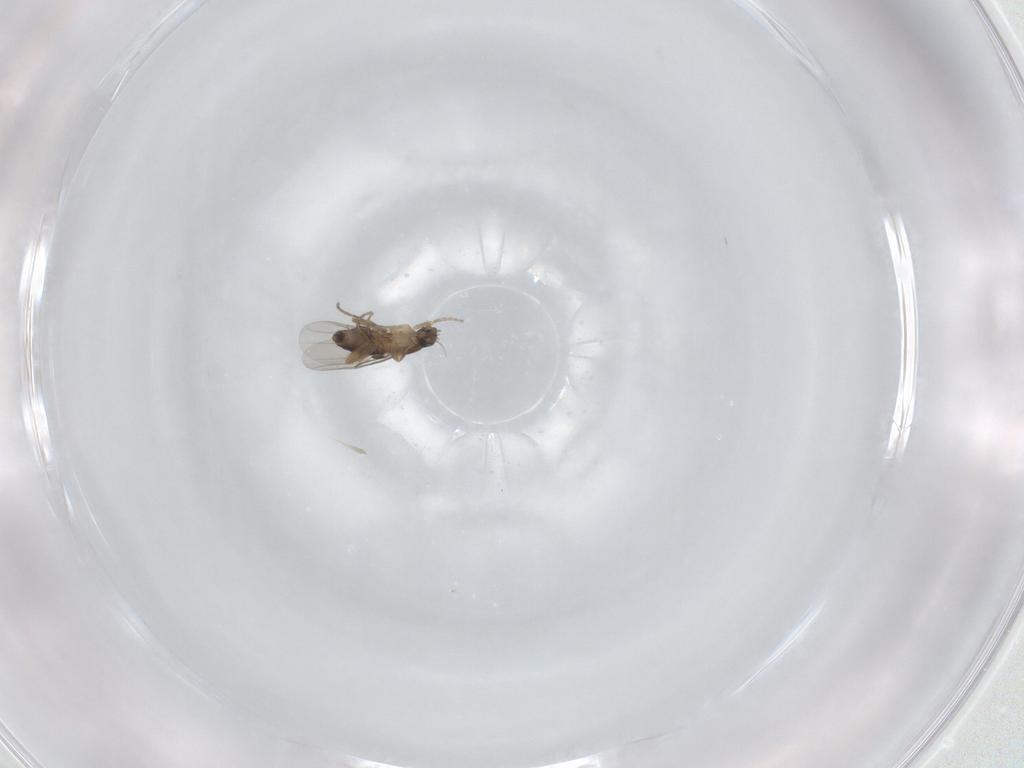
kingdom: Animalia
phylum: Arthropoda
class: Insecta
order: Diptera
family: Phoridae
